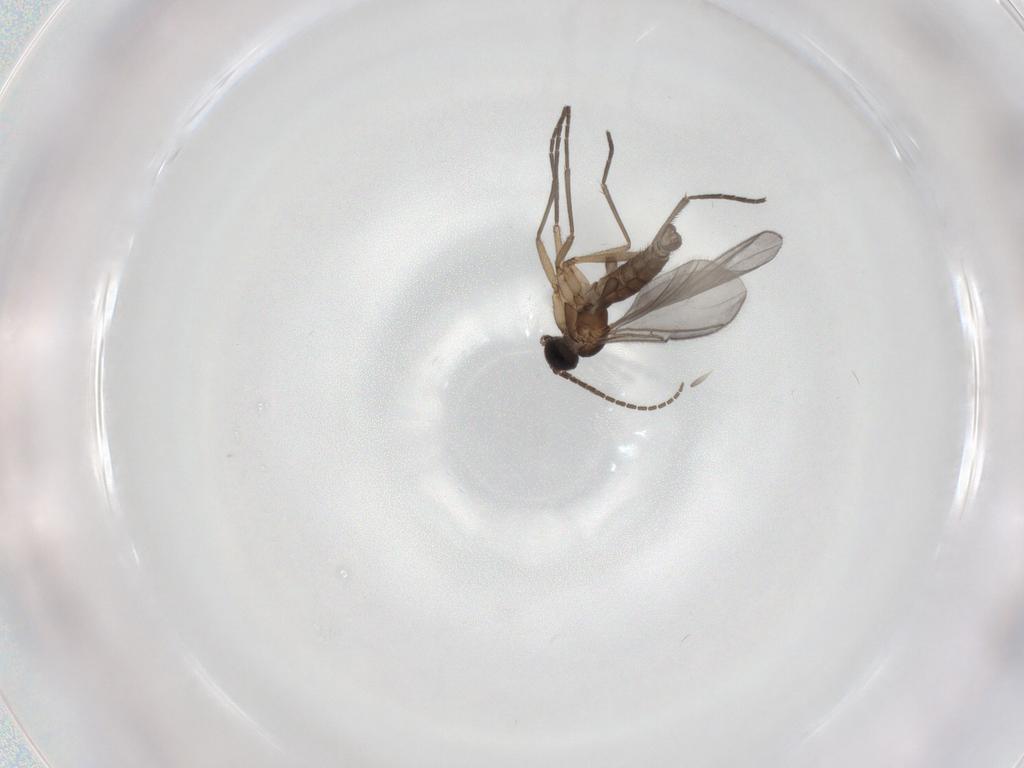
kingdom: Animalia
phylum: Arthropoda
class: Insecta
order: Diptera
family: Sciaridae
